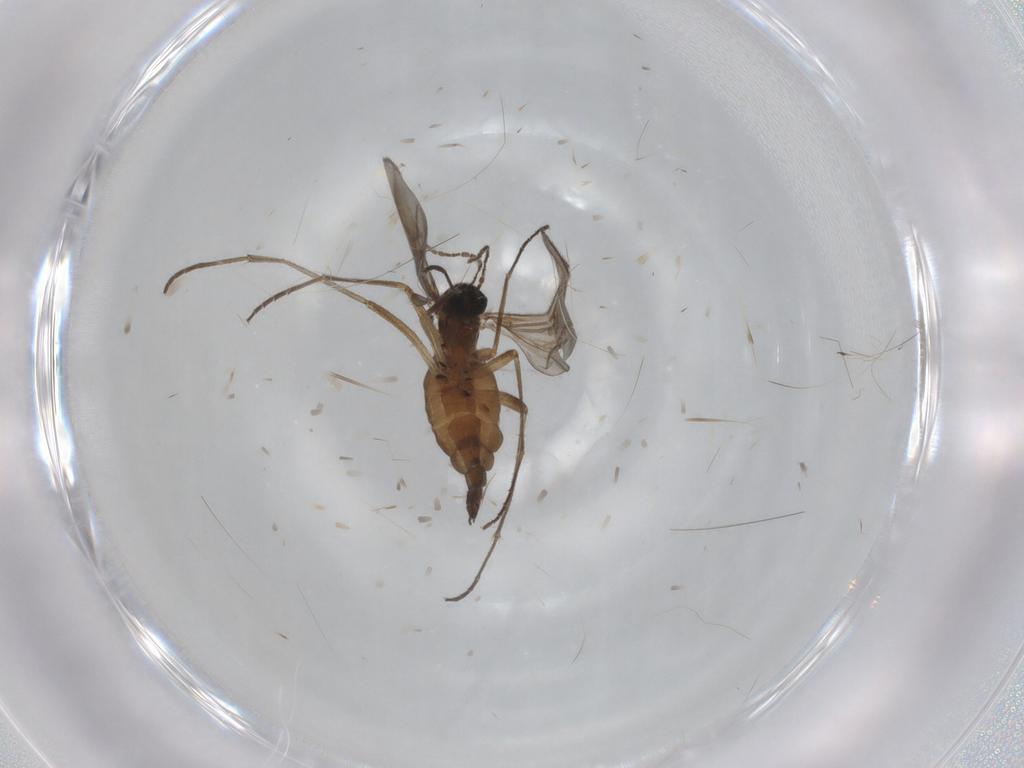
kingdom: Animalia
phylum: Arthropoda
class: Insecta
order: Diptera
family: Sciaridae
